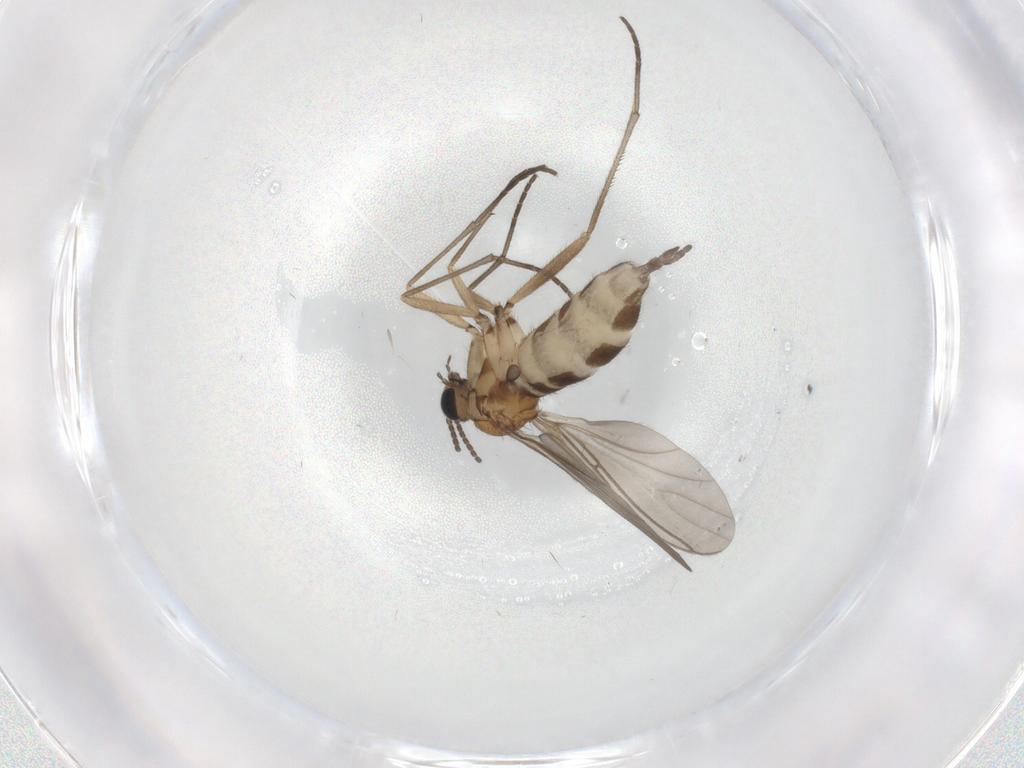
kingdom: Animalia
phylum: Arthropoda
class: Insecta
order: Diptera
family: Sciaridae
